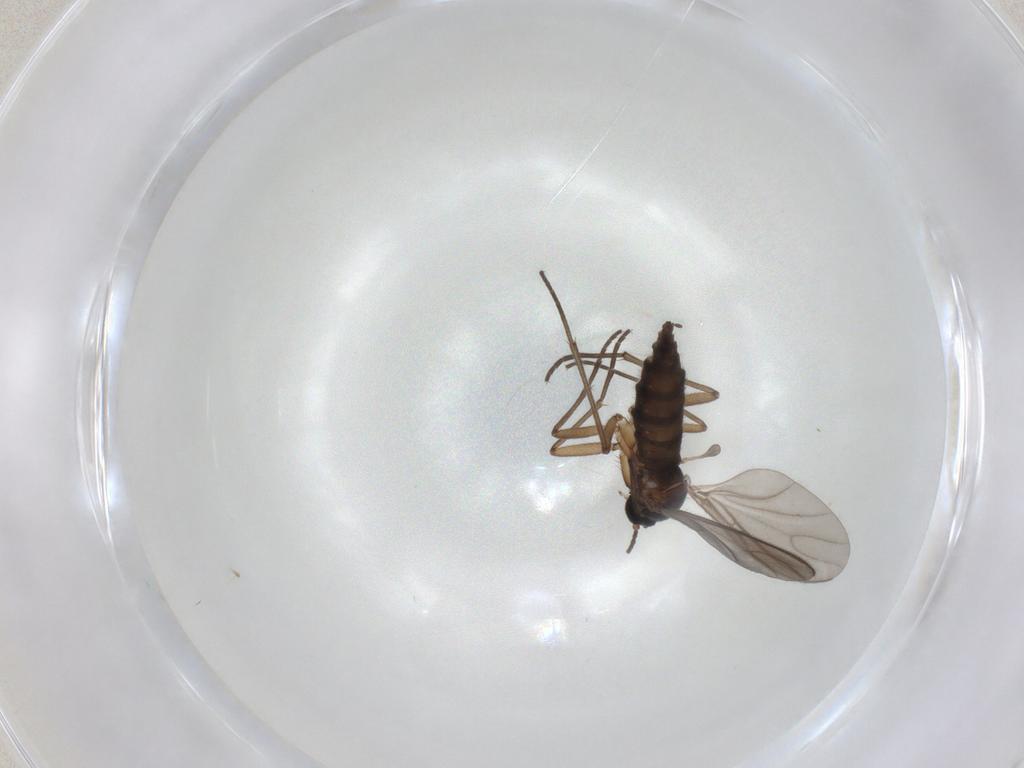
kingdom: Animalia
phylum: Arthropoda
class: Insecta
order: Diptera
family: Sciaridae
